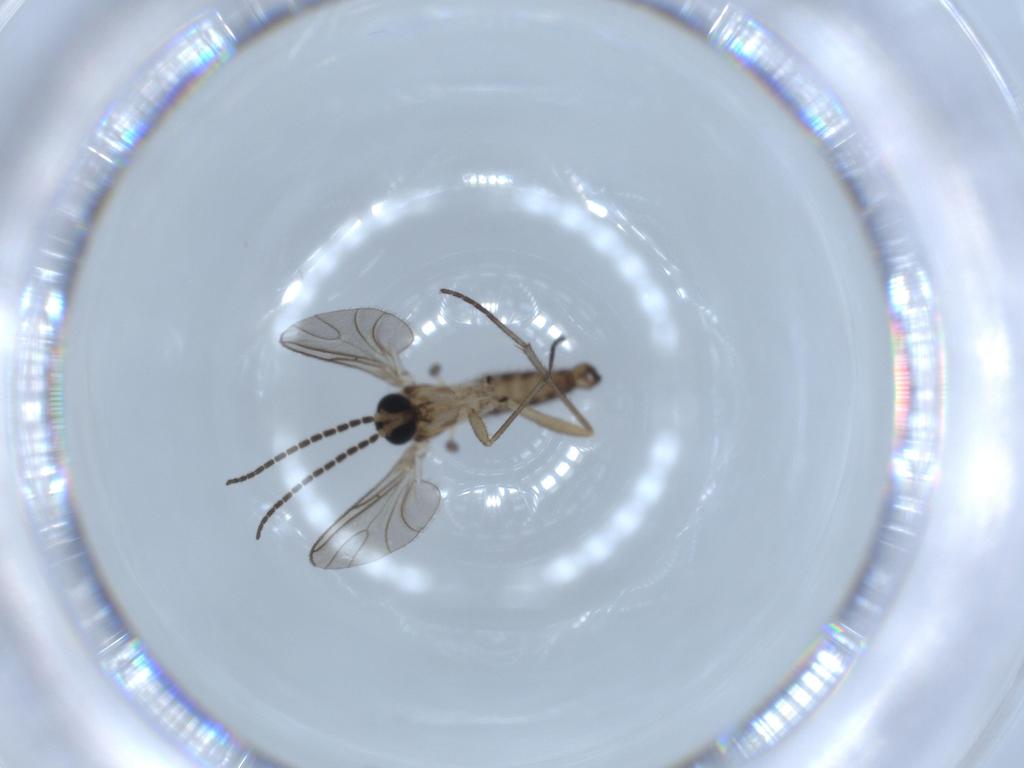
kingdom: Animalia
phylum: Arthropoda
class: Insecta
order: Diptera
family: Sciaridae
